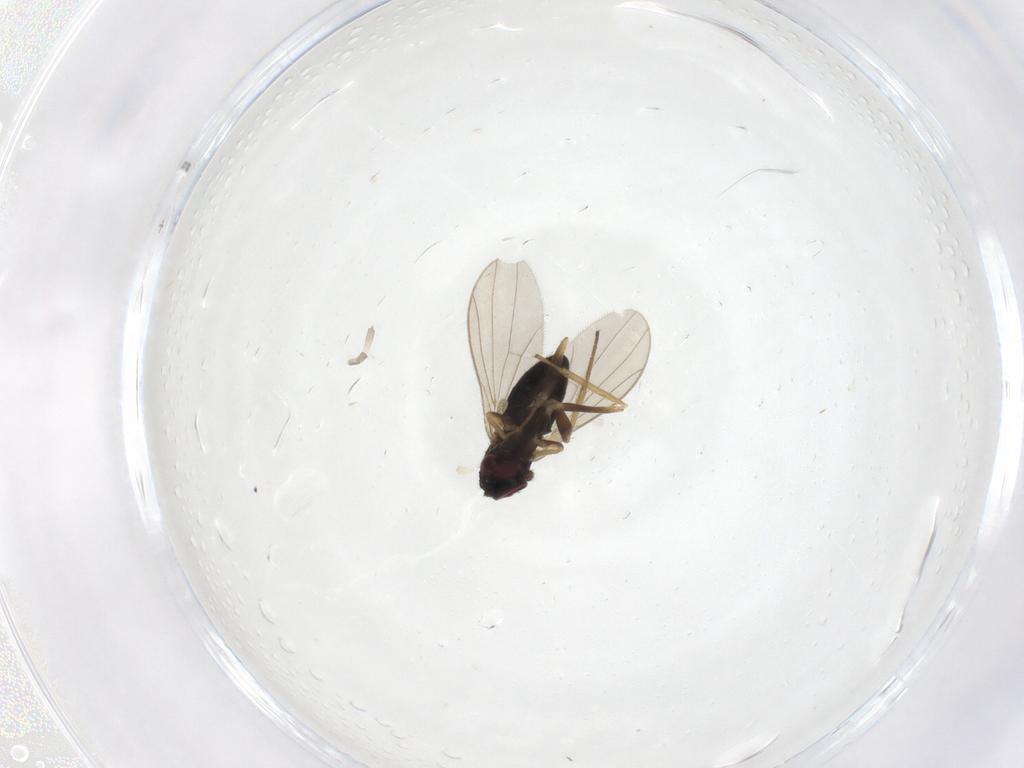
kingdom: Animalia
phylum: Arthropoda
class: Insecta
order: Diptera
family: Dolichopodidae
